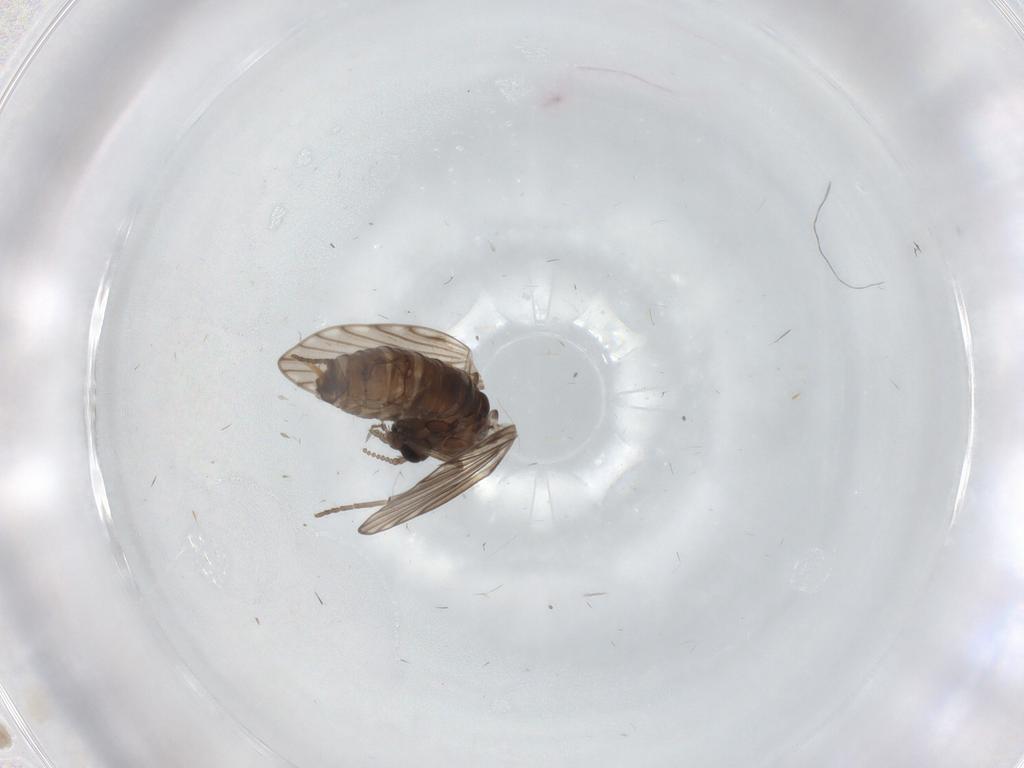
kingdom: Animalia
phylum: Arthropoda
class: Insecta
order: Diptera
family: Psychodidae
